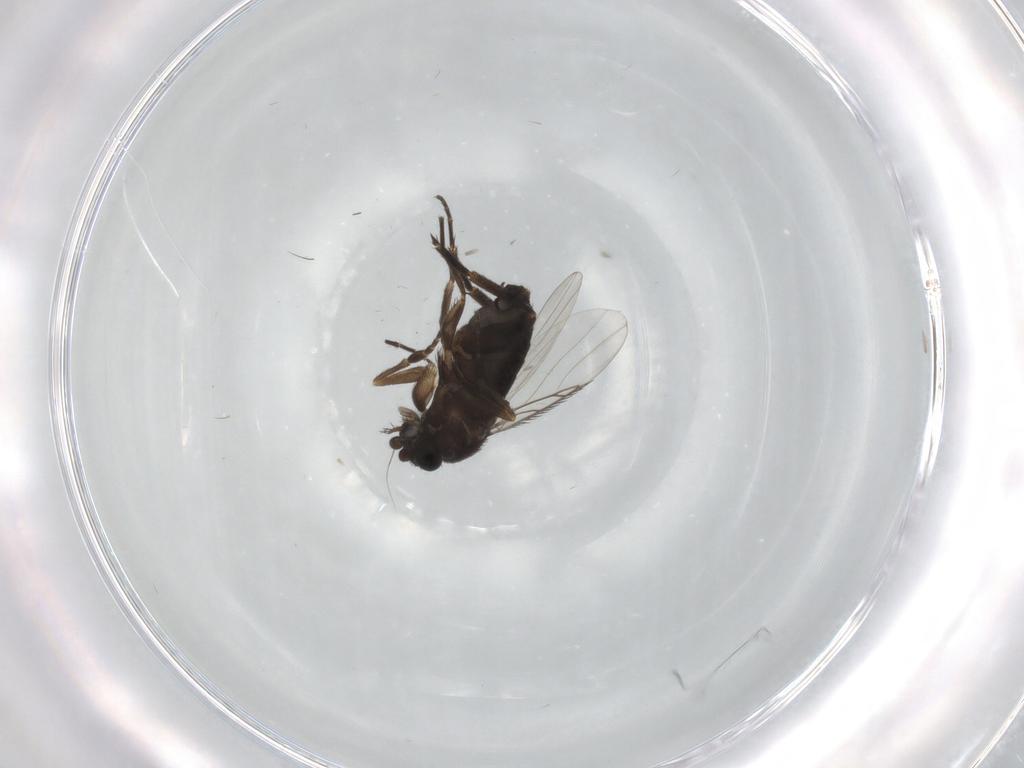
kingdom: Animalia
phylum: Arthropoda
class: Insecta
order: Diptera
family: Phoridae
